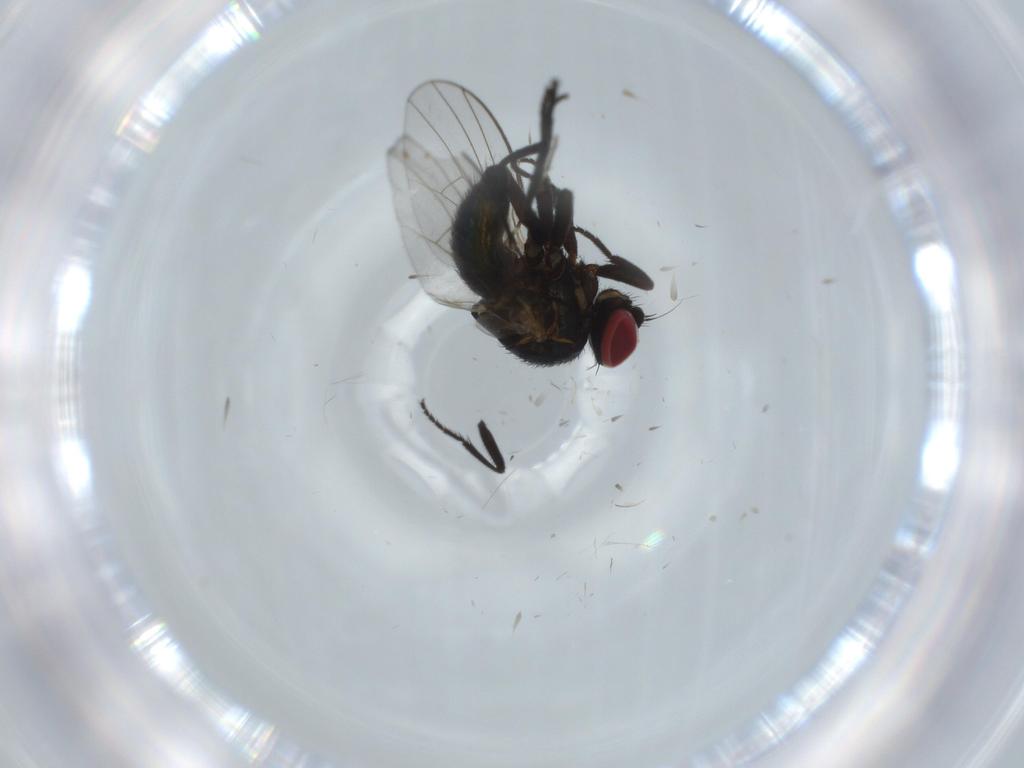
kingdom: Animalia
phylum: Arthropoda
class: Insecta
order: Diptera
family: Agromyzidae
